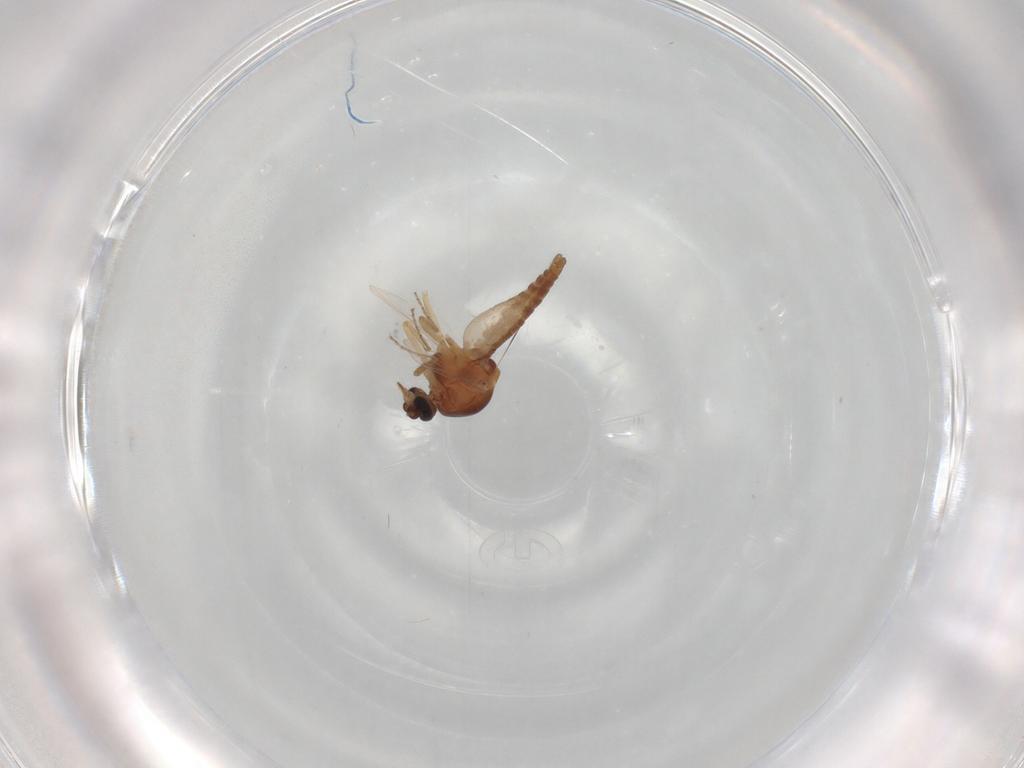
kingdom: Animalia
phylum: Arthropoda
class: Insecta
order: Diptera
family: Ceratopogonidae
